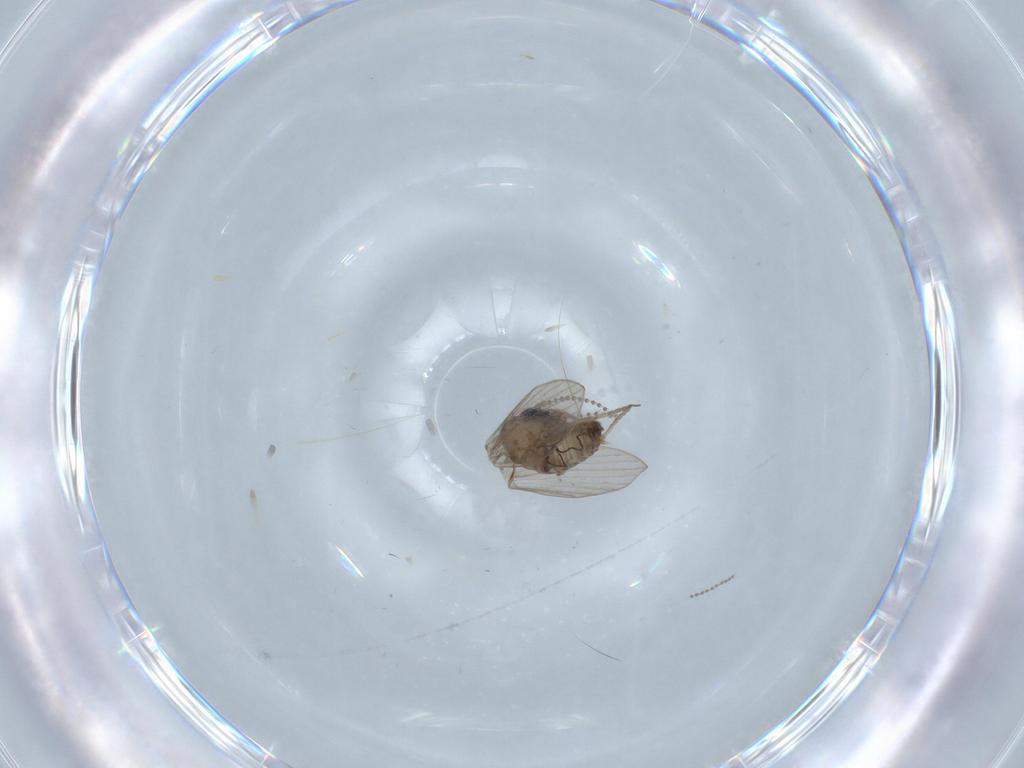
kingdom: Animalia
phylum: Arthropoda
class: Insecta
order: Diptera
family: Psychodidae
